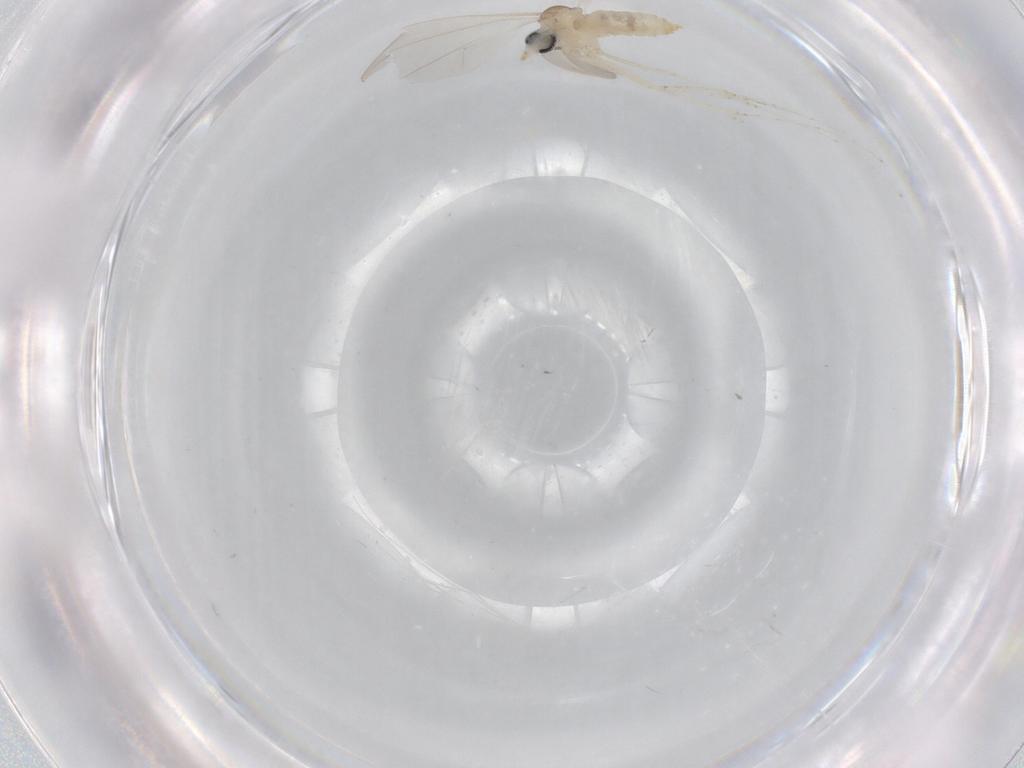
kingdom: Animalia
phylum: Arthropoda
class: Insecta
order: Diptera
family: Cecidomyiidae
